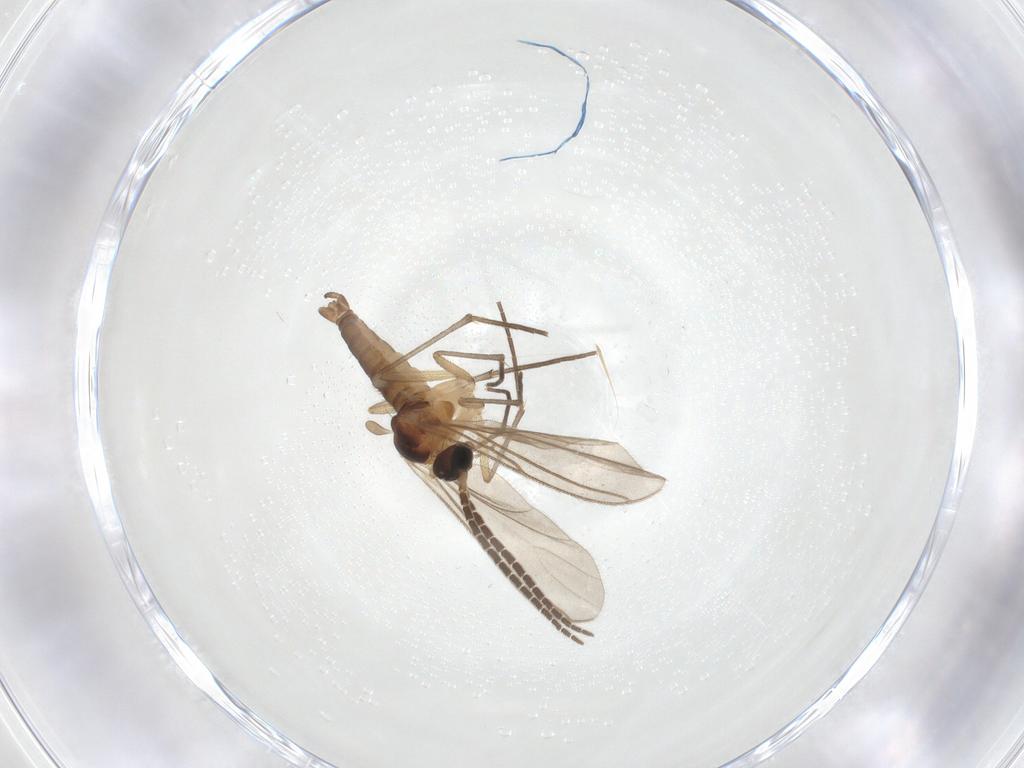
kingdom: Animalia
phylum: Arthropoda
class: Insecta
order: Diptera
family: Sciaridae
